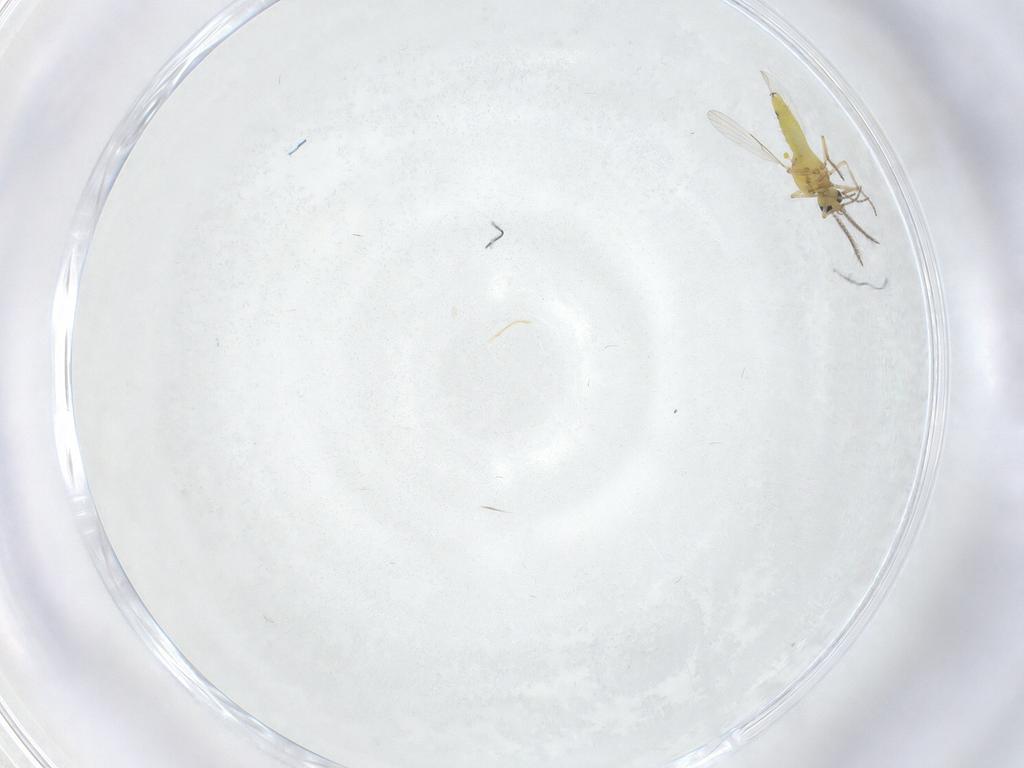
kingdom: Animalia
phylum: Arthropoda
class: Insecta
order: Diptera
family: Ceratopogonidae
